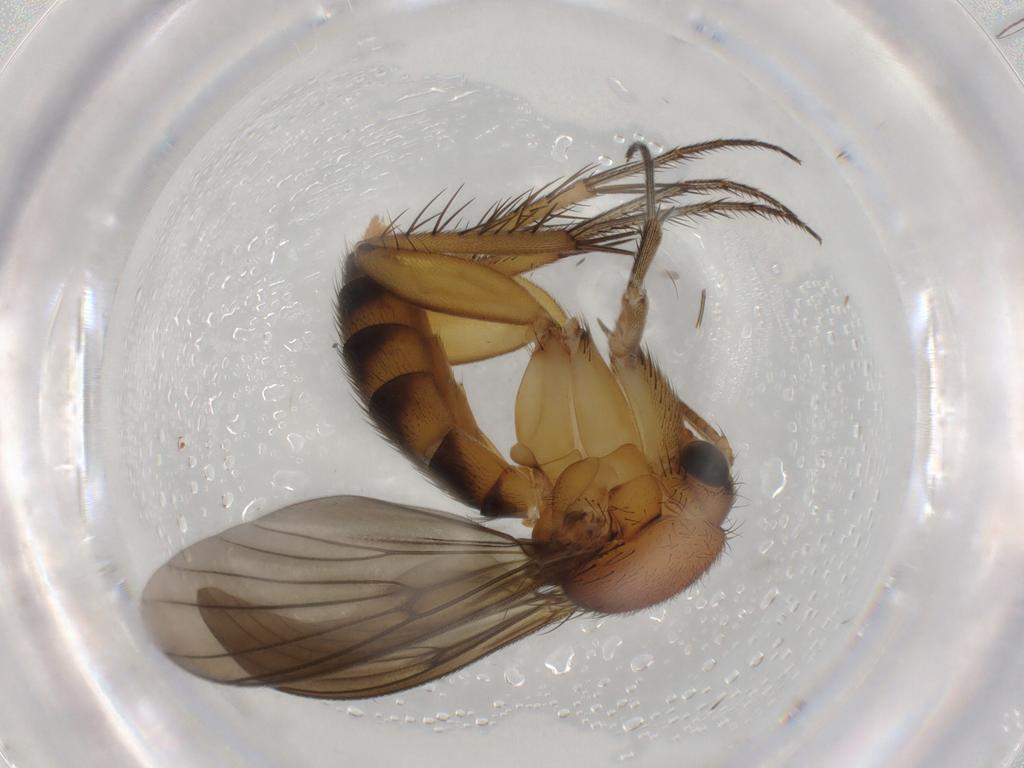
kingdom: Animalia
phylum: Arthropoda
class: Insecta
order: Diptera
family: Mycetophilidae
